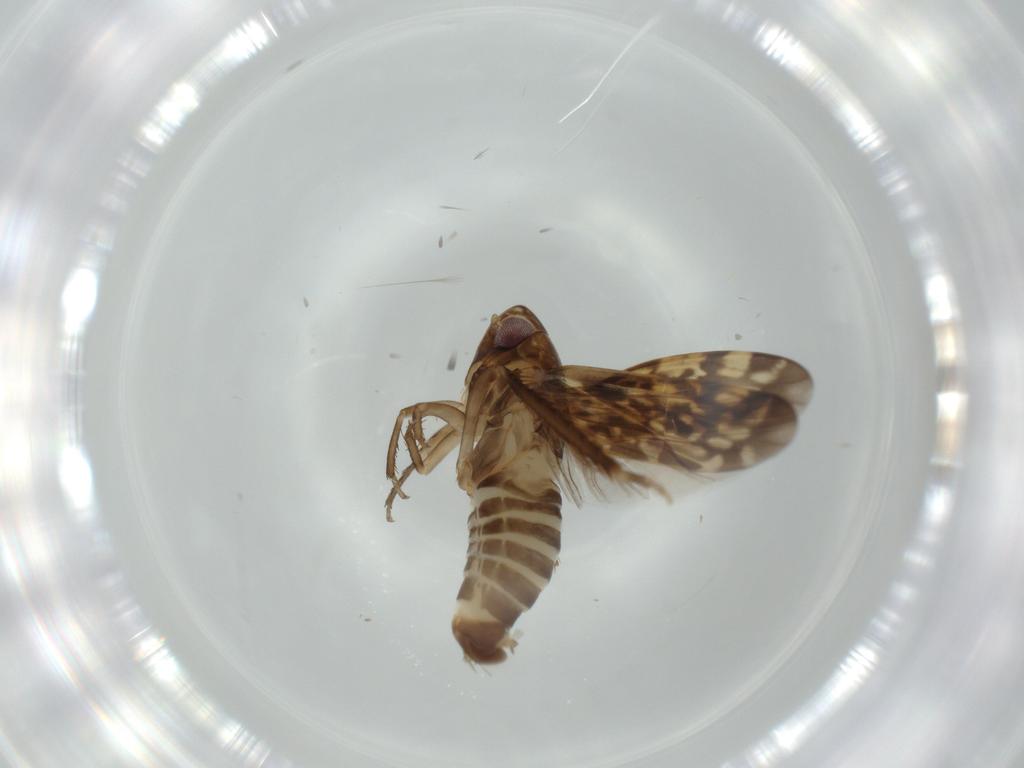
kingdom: Animalia
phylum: Arthropoda
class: Insecta
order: Hemiptera
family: Cicadellidae
